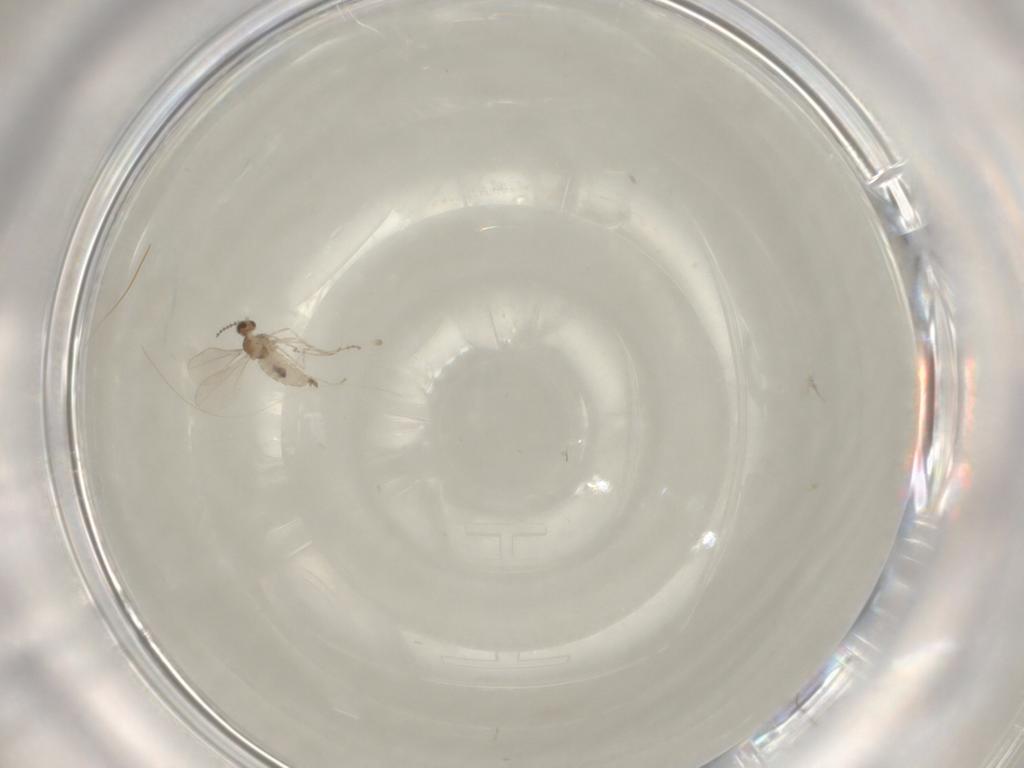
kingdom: Animalia
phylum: Arthropoda
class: Insecta
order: Diptera
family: Cecidomyiidae
